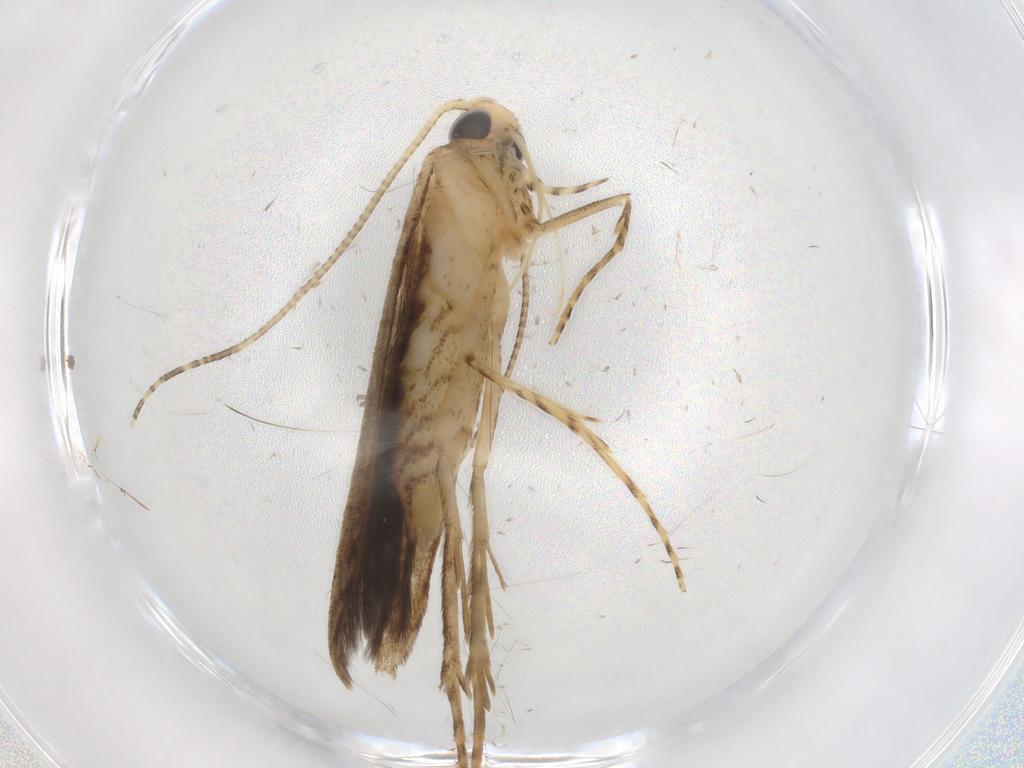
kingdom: Animalia
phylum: Arthropoda
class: Insecta
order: Lepidoptera
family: Batrachedridae
